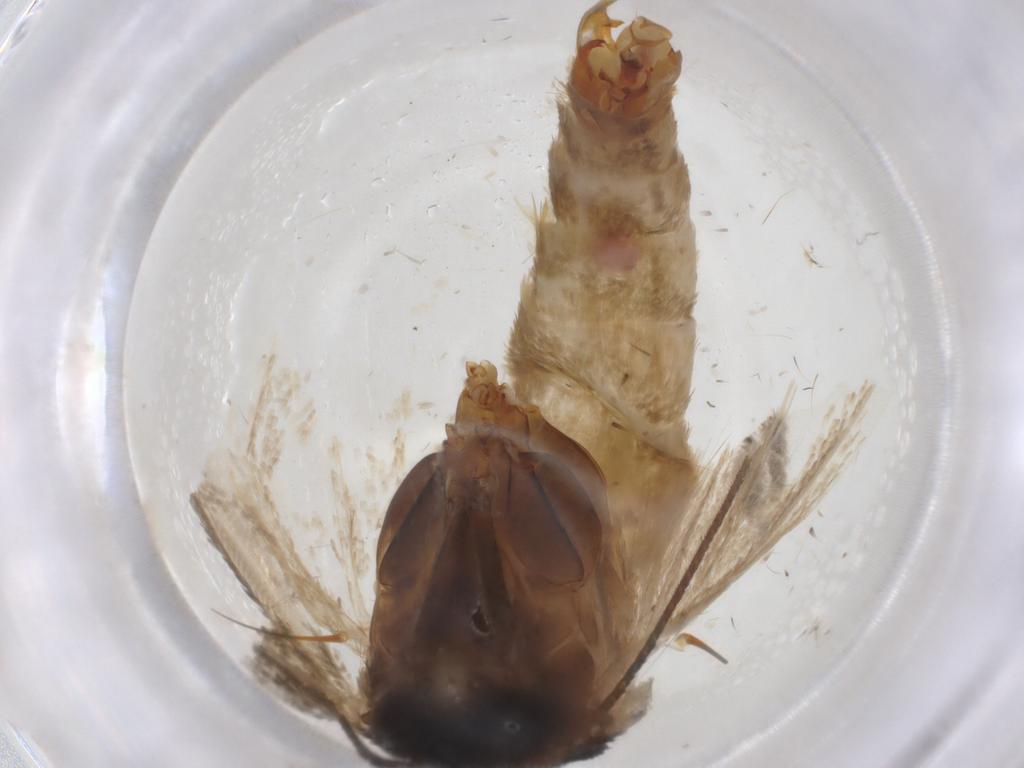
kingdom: Animalia
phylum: Arthropoda
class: Insecta
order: Lepidoptera
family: Oecophoridae
